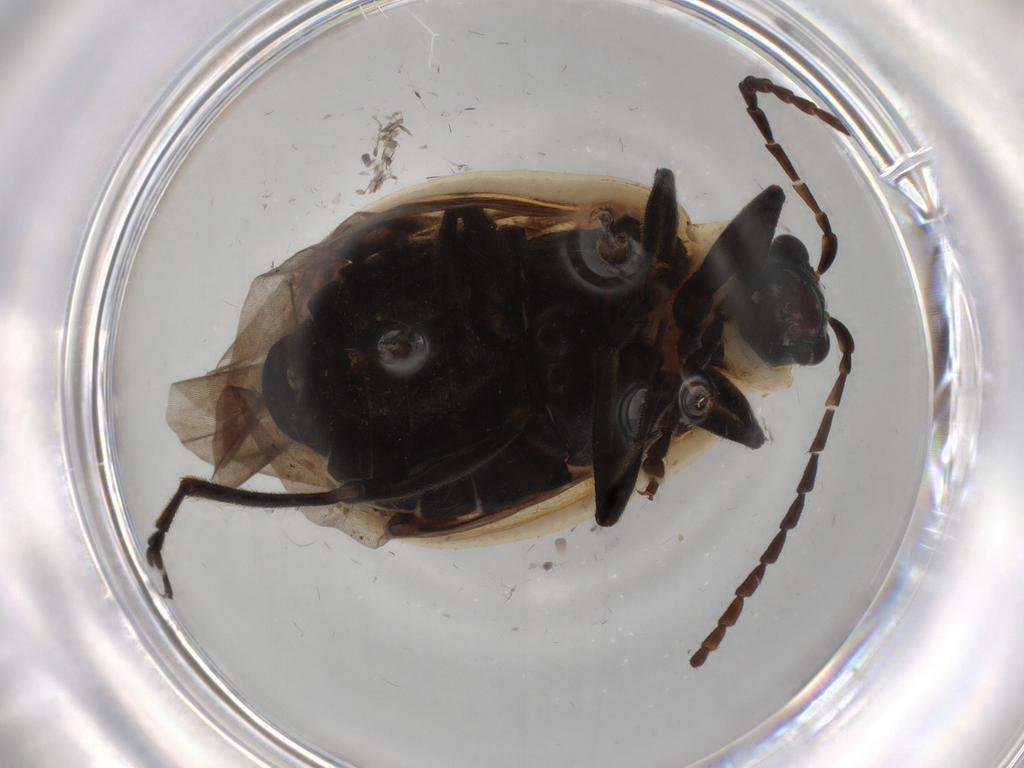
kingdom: Animalia
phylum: Arthropoda
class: Insecta
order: Coleoptera
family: Chrysomelidae
